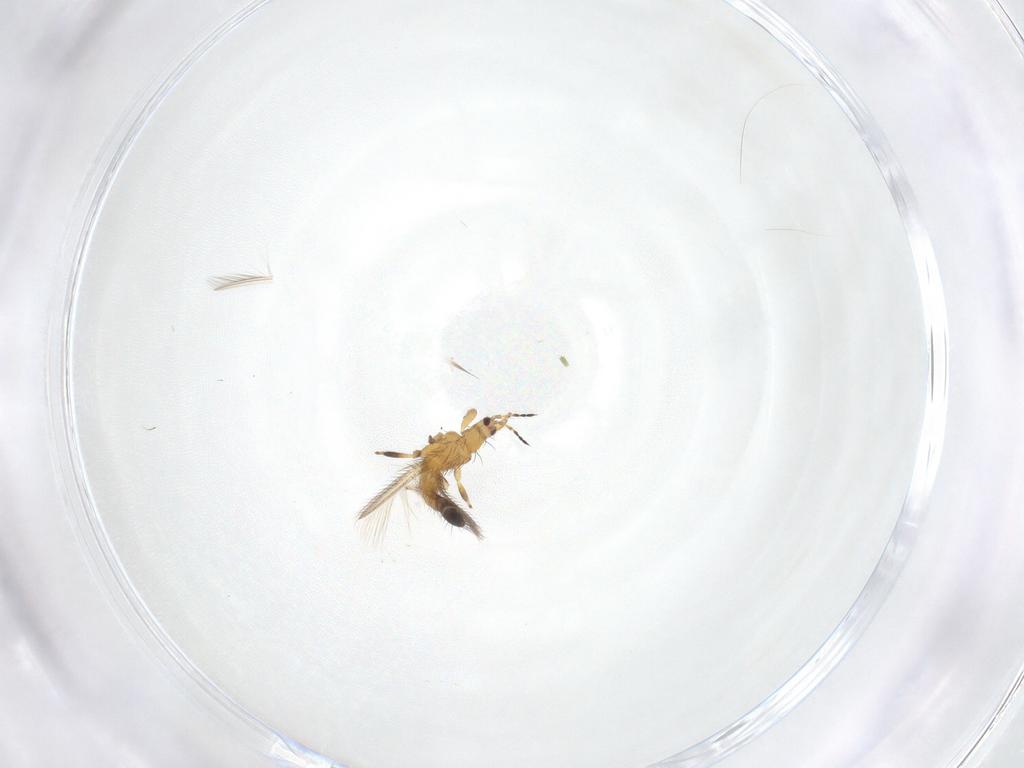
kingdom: Animalia
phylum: Arthropoda
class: Insecta
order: Thysanoptera
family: Thripidae
